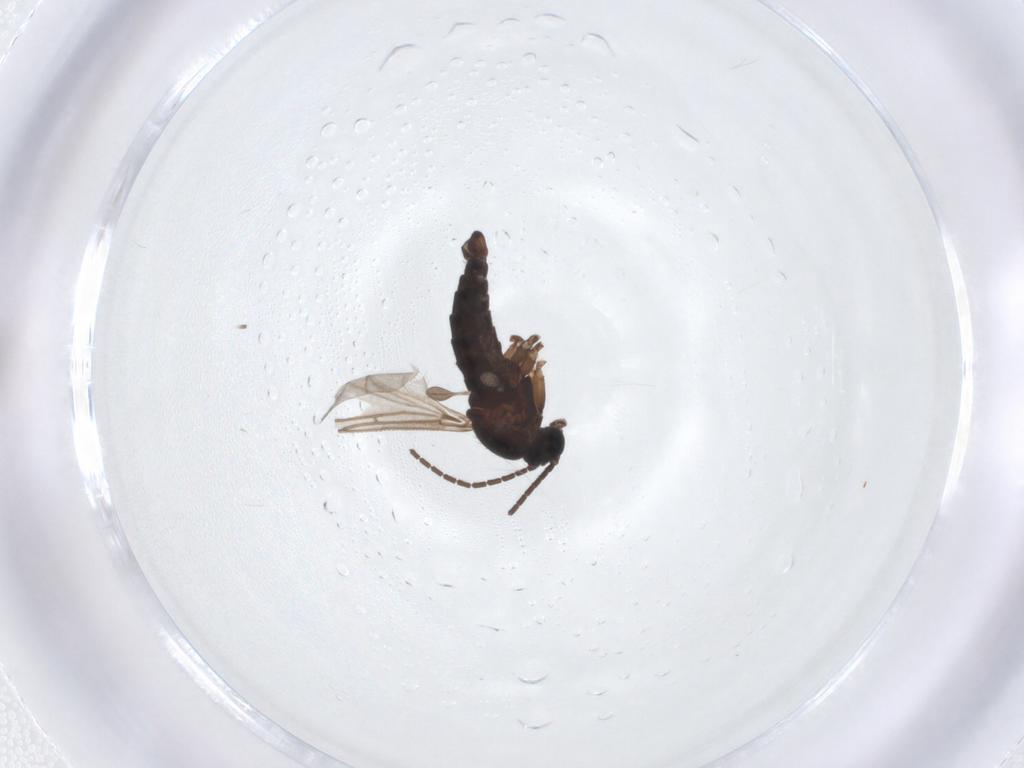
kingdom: Animalia
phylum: Arthropoda
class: Insecta
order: Diptera
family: Sciaridae
